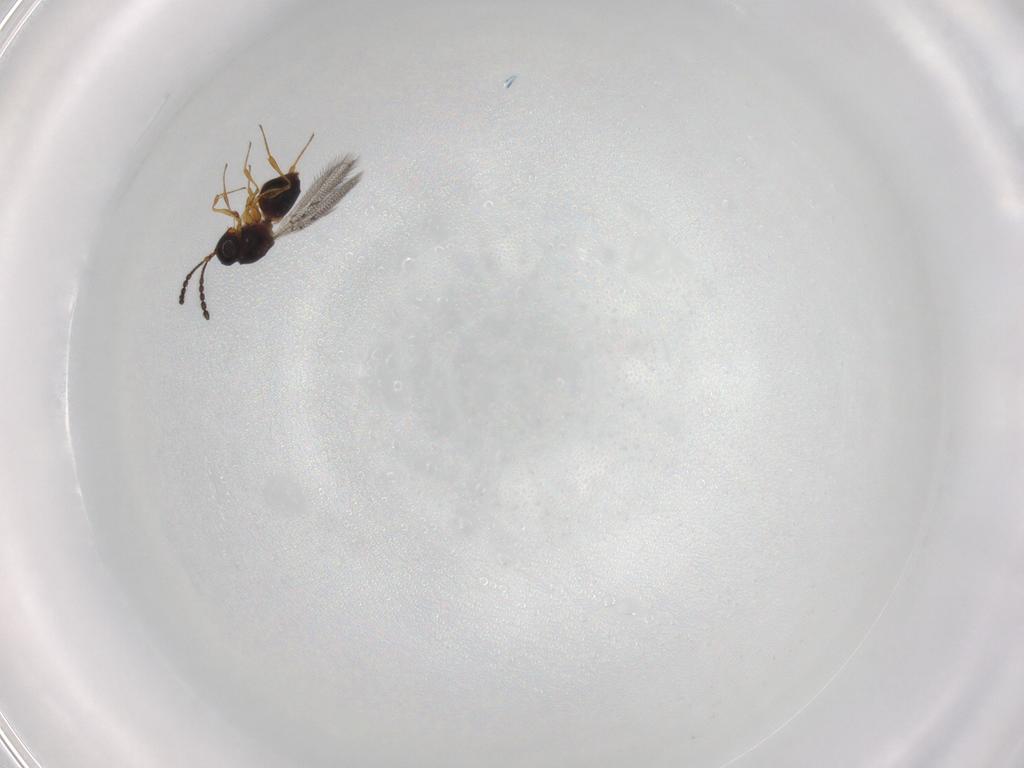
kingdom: Animalia
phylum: Arthropoda
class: Insecta
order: Hymenoptera
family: Figitidae
